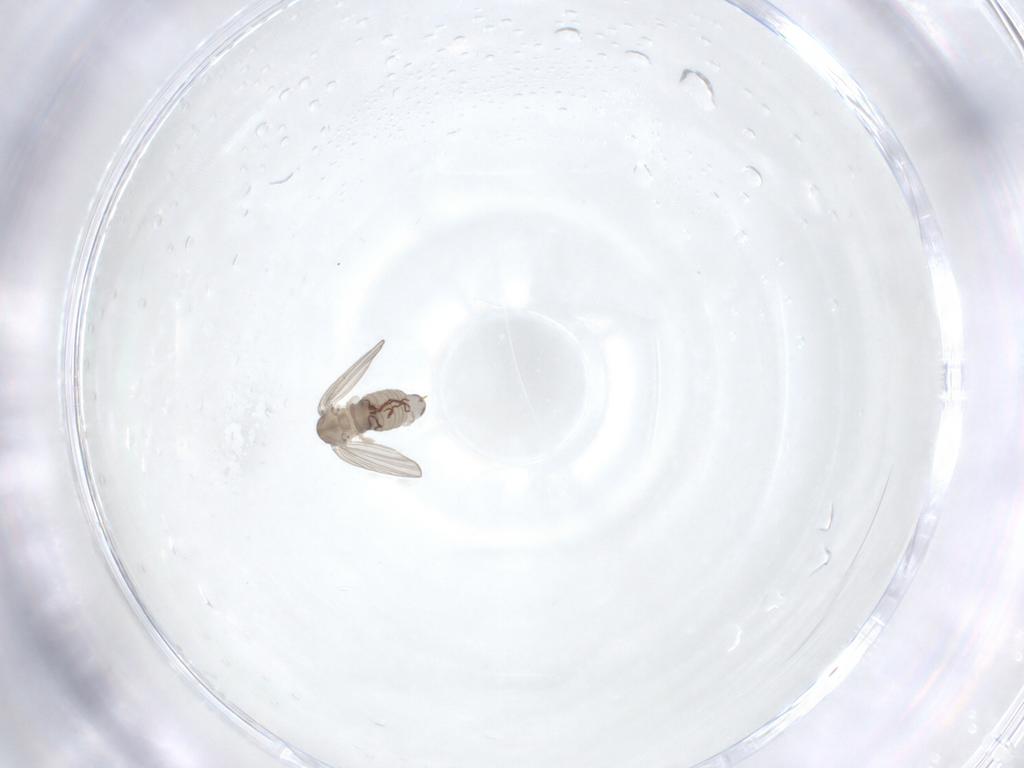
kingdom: Animalia
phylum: Arthropoda
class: Insecta
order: Diptera
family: Psychodidae
